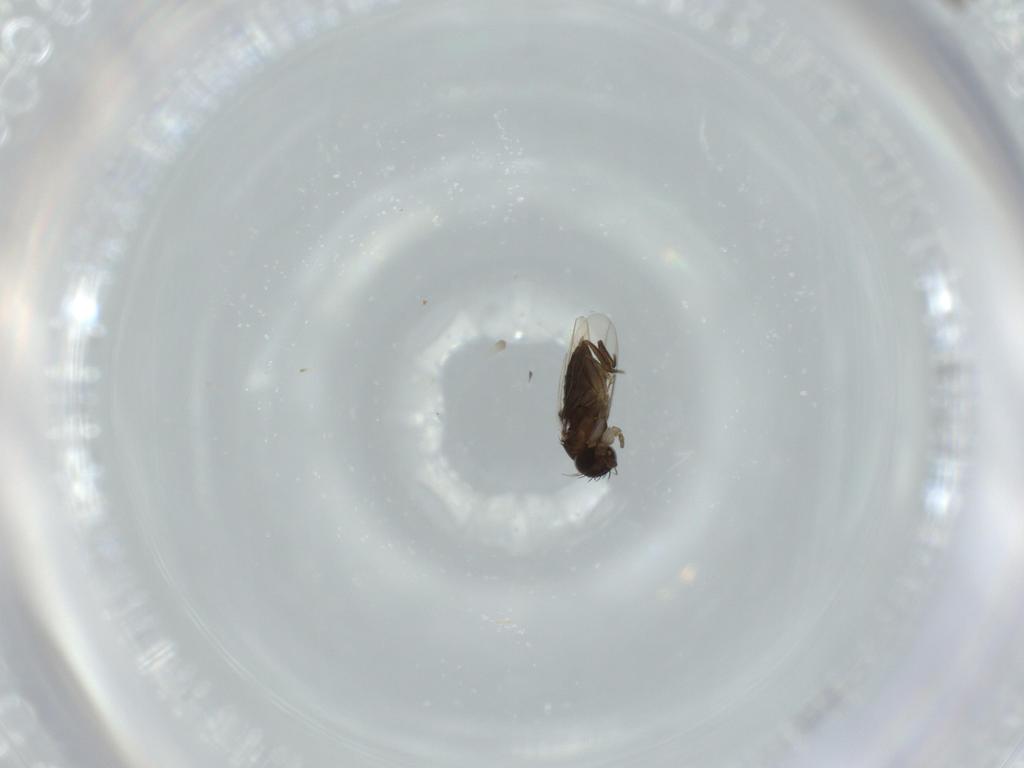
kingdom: Animalia
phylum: Arthropoda
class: Insecta
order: Diptera
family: Phoridae
